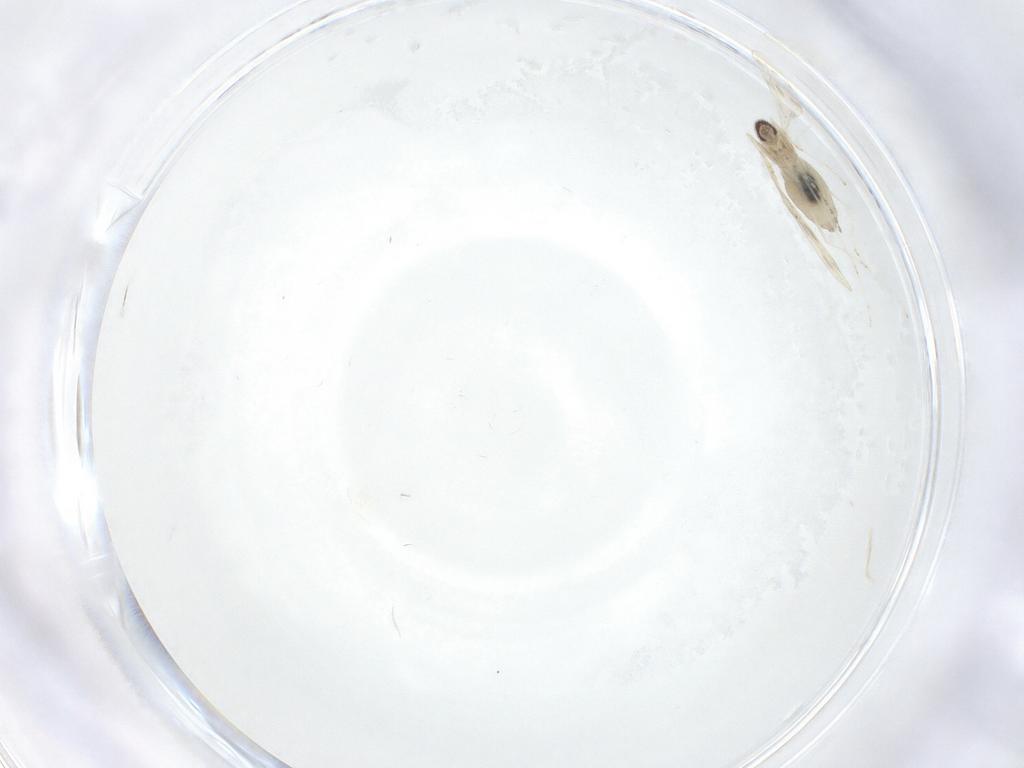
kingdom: Animalia
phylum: Arthropoda
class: Insecta
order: Diptera
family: Cecidomyiidae
